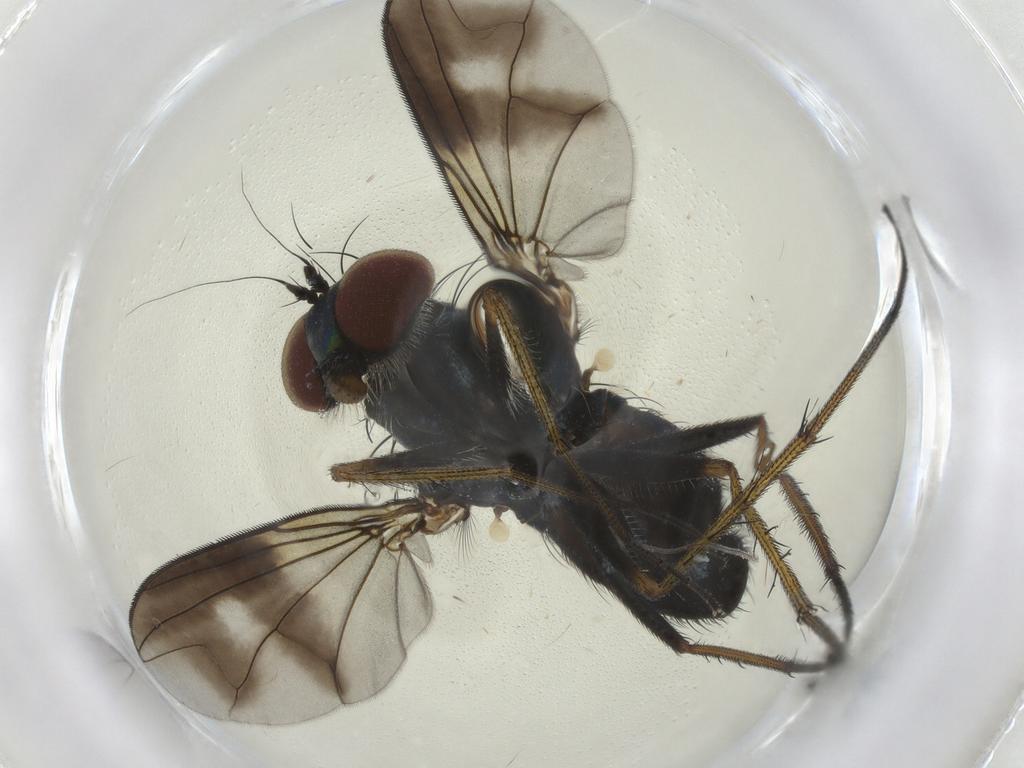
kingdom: Animalia
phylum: Arthropoda
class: Insecta
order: Diptera
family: Dolichopodidae
